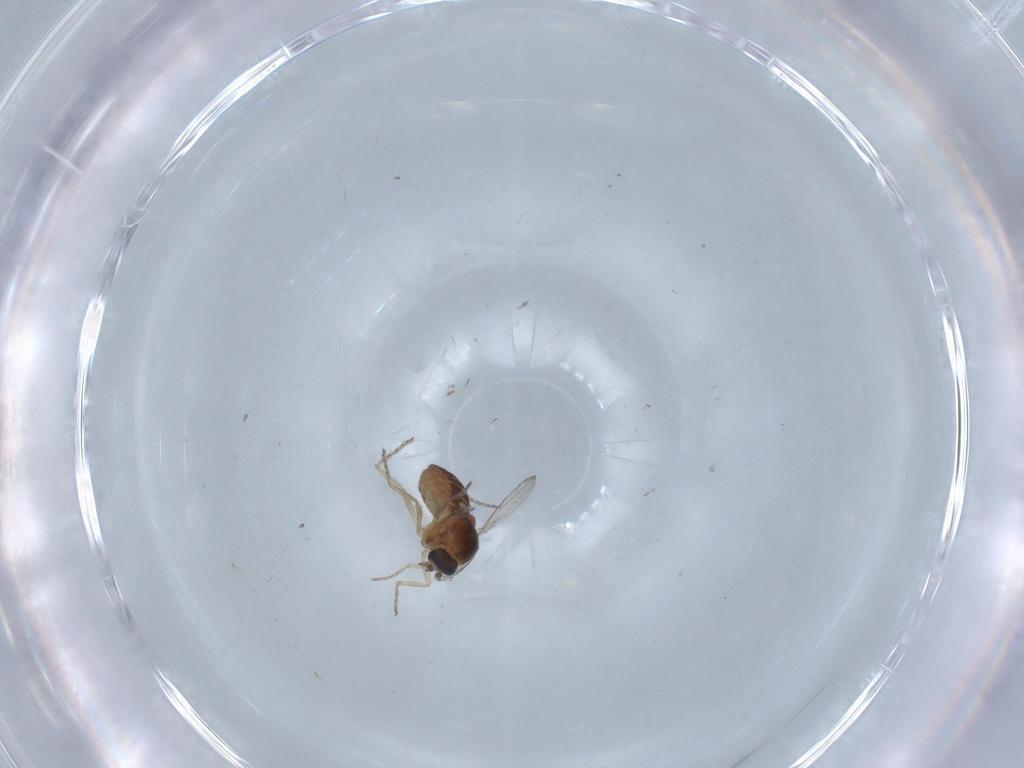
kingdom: Animalia
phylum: Arthropoda
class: Insecta
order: Diptera
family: Ceratopogonidae
